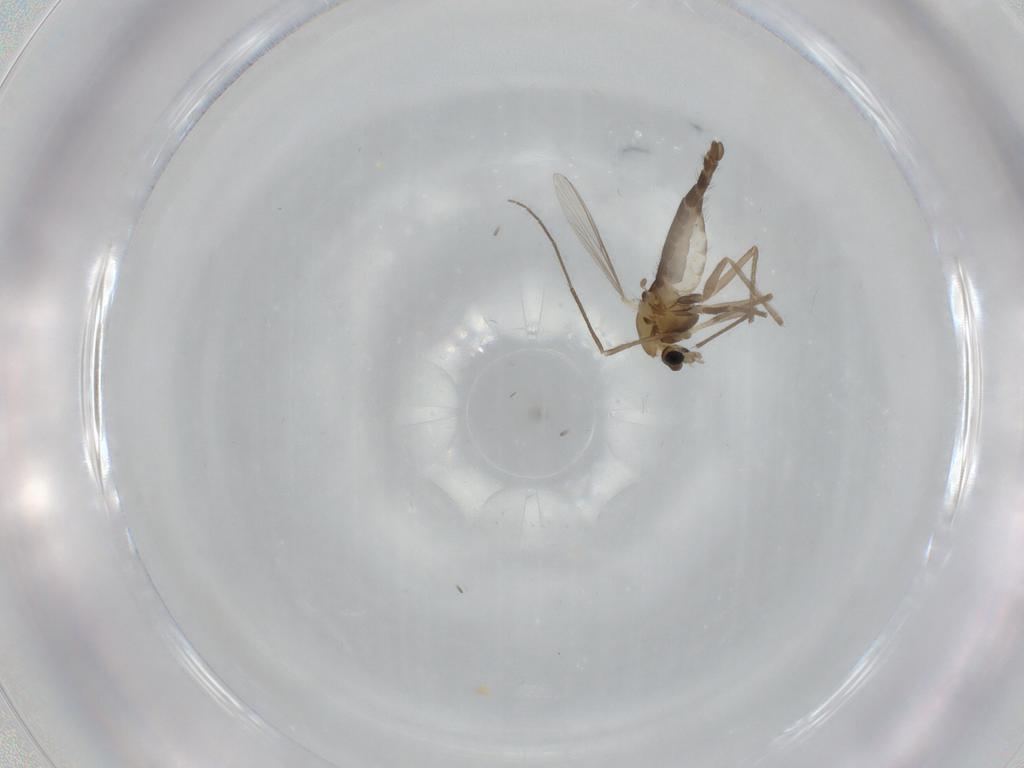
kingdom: Animalia
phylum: Arthropoda
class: Insecta
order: Diptera
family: Chironomidae
